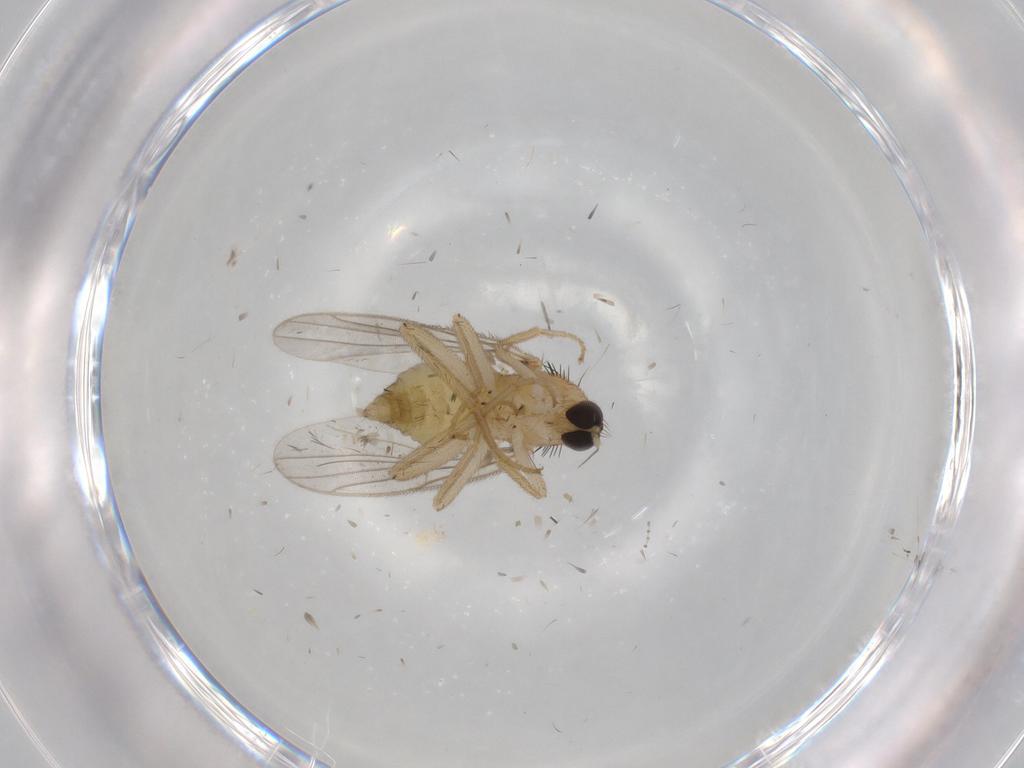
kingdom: Animalia
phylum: Arthropoda
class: Insecta
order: Diptera
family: Hybotidae
